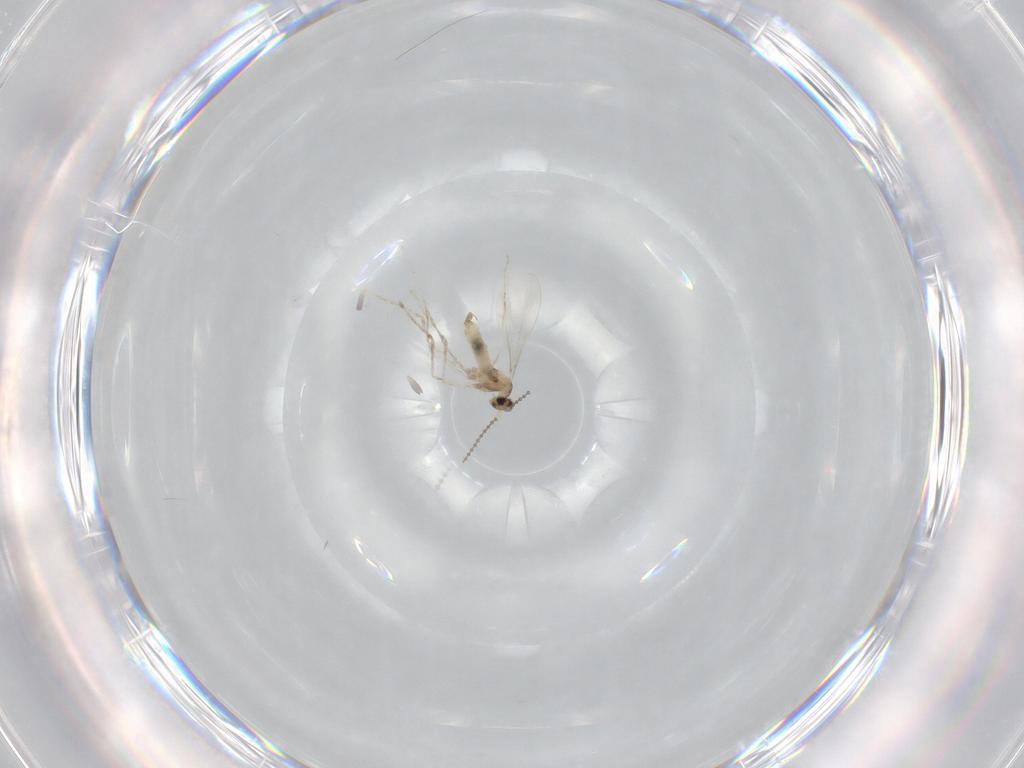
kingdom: Animalia
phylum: Arthropoda
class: Insecta
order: Diptera
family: Cecidomyiidae
